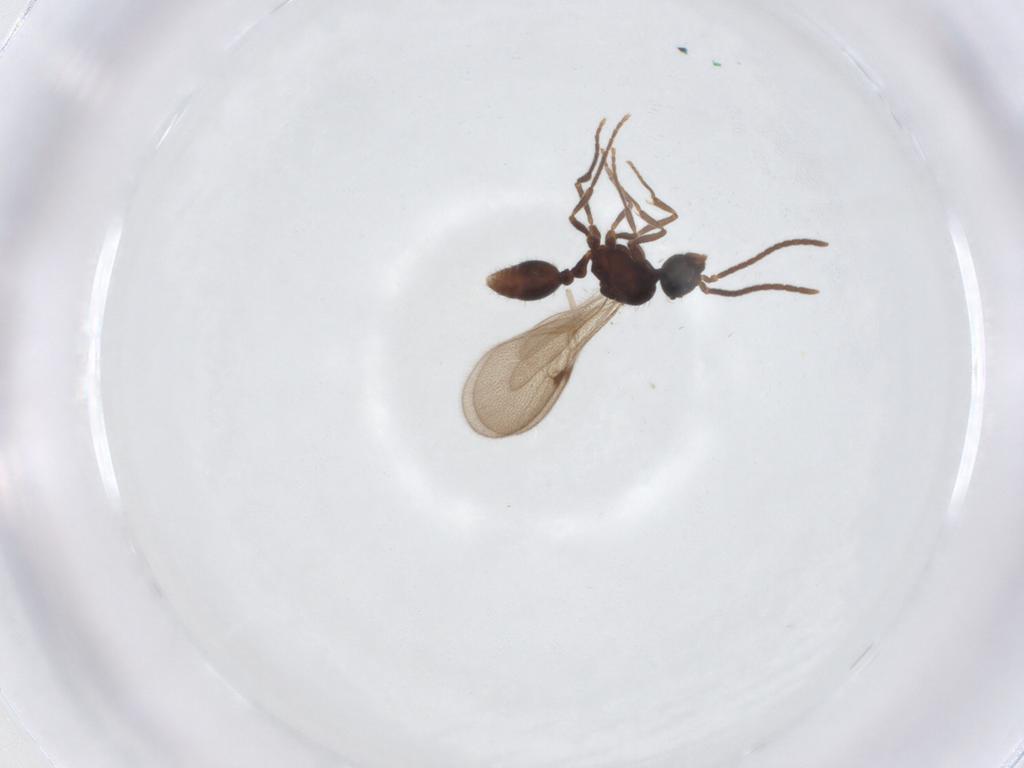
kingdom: Animalia
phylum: Arthropoda
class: Insecta
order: Hymenoptera
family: Formicidae
